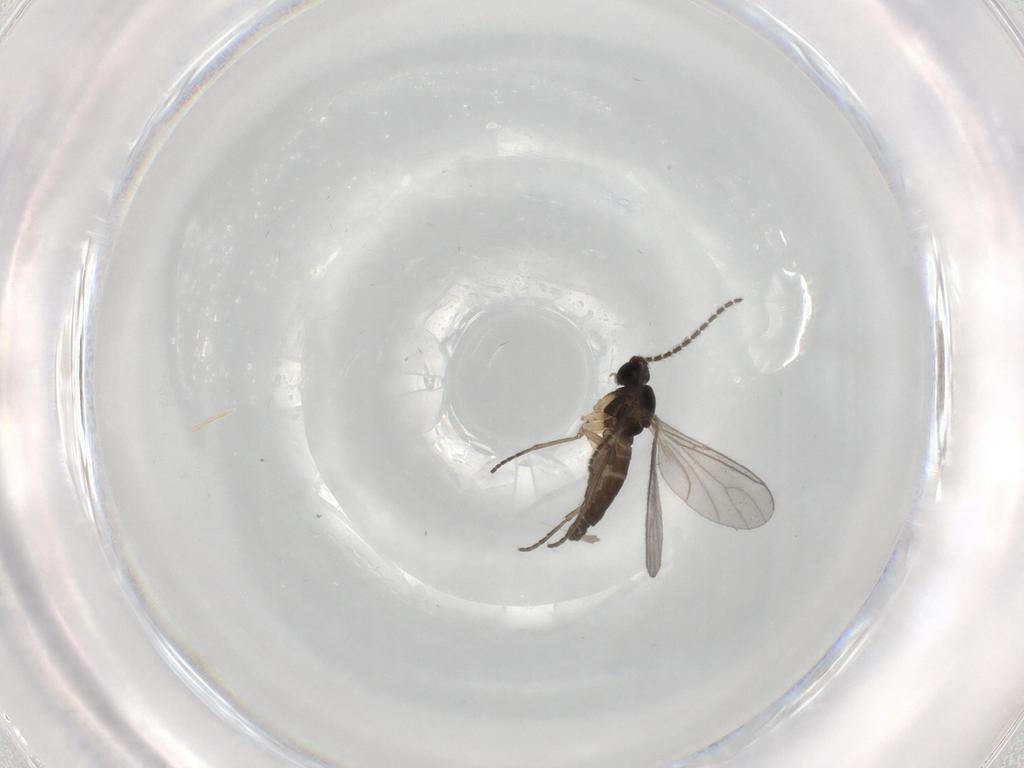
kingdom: Animalia
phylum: Arthropoda
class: Insecta
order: Diptera
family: Sciaridae
